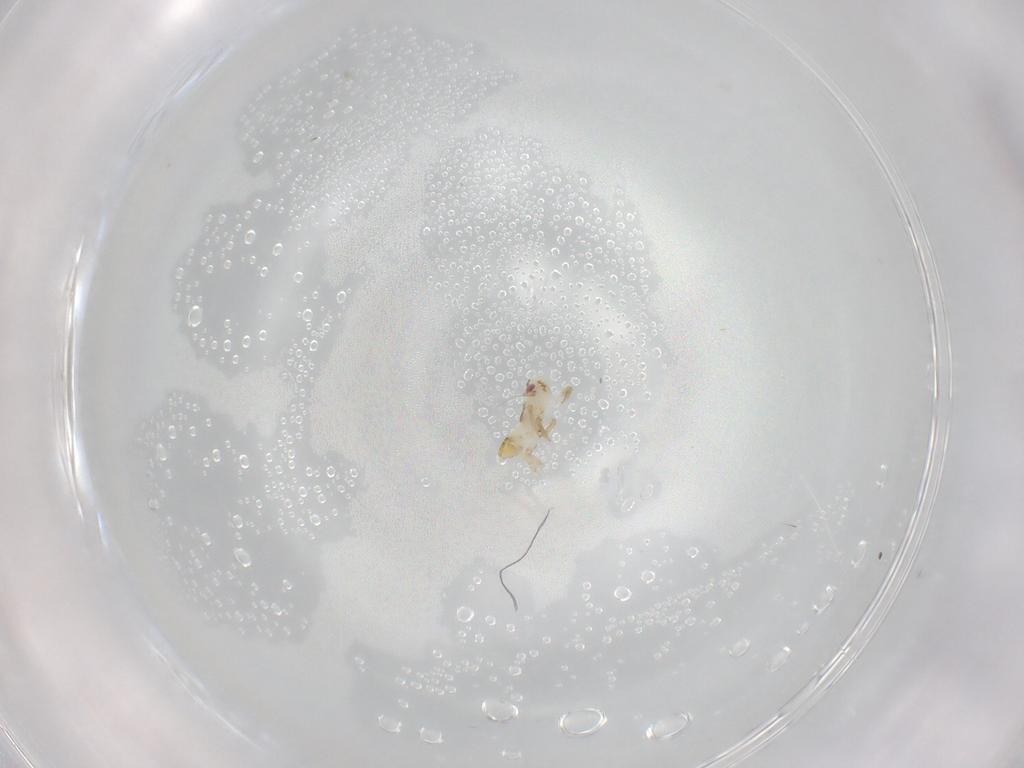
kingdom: Animalia
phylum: Arthropoda
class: Insecta
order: Hemiptera
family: Delphacidae
